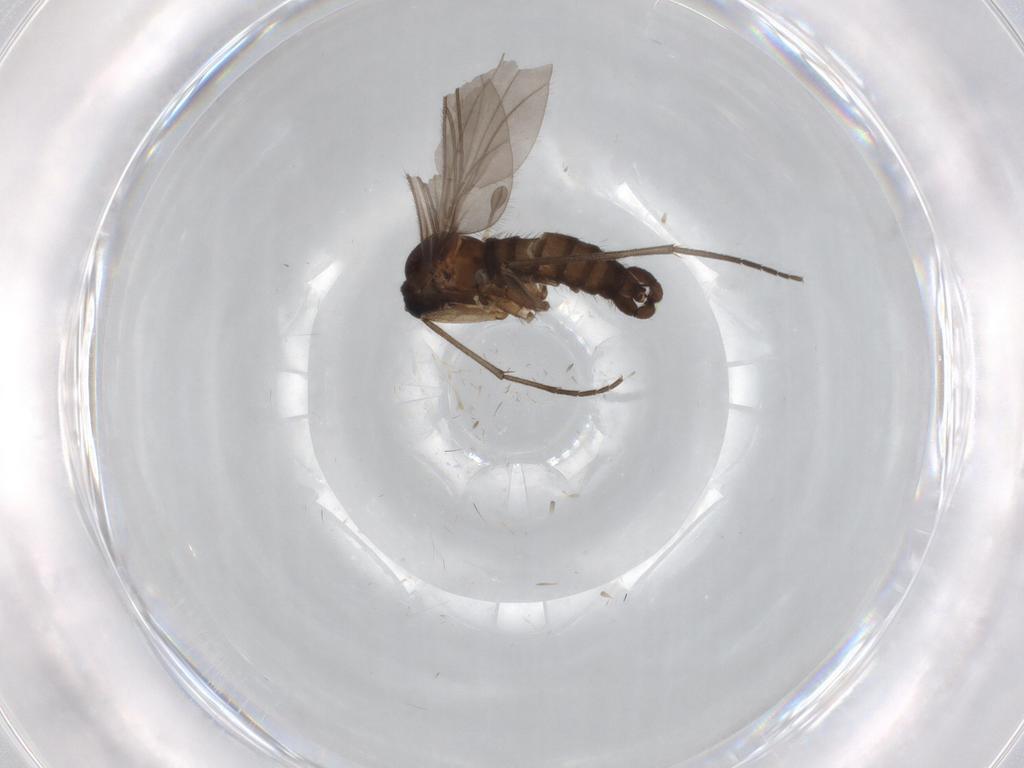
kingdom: Animalia
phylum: Arthropoda
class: Insecta
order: Diptera
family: Sciaridae
